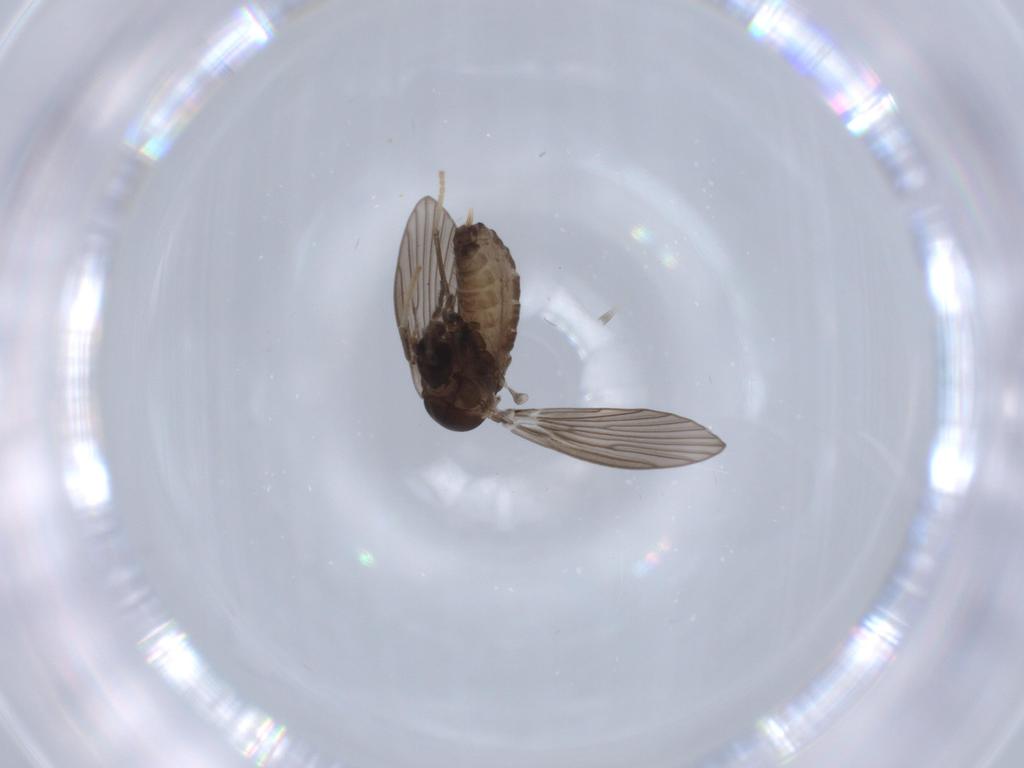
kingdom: Animalia
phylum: Arthropoda
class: Insecta
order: Diptera
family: Psychodidae
